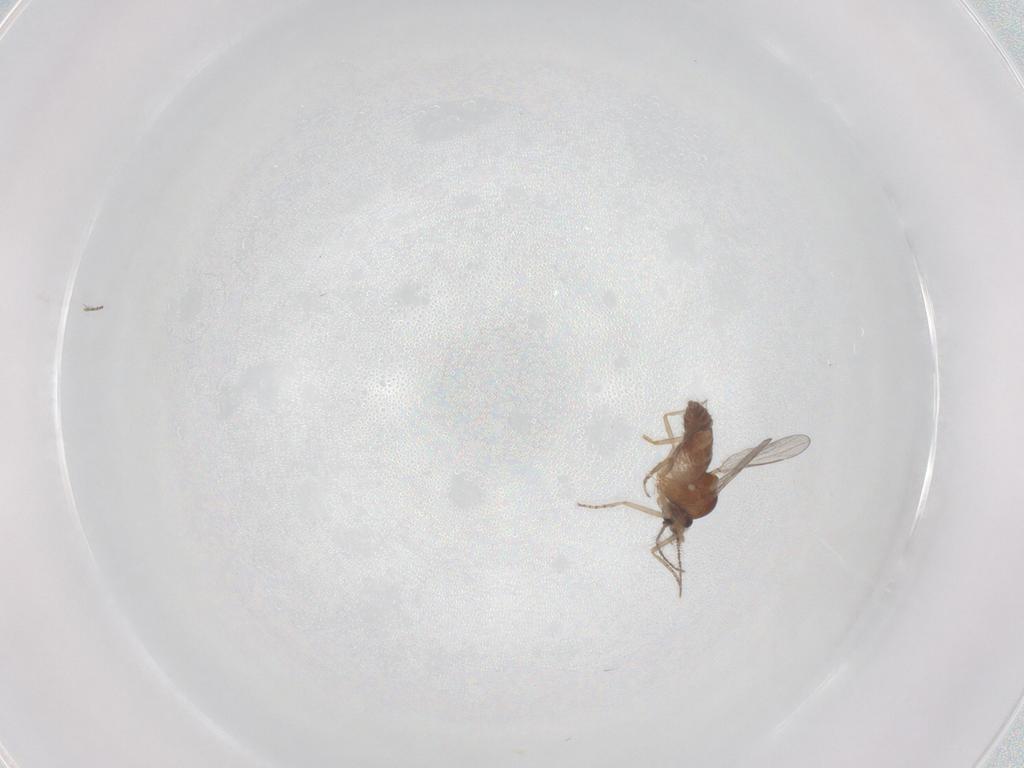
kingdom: Animalia
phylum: Arthropoda
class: Insecta
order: Diptera
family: Ceratopogonidae
